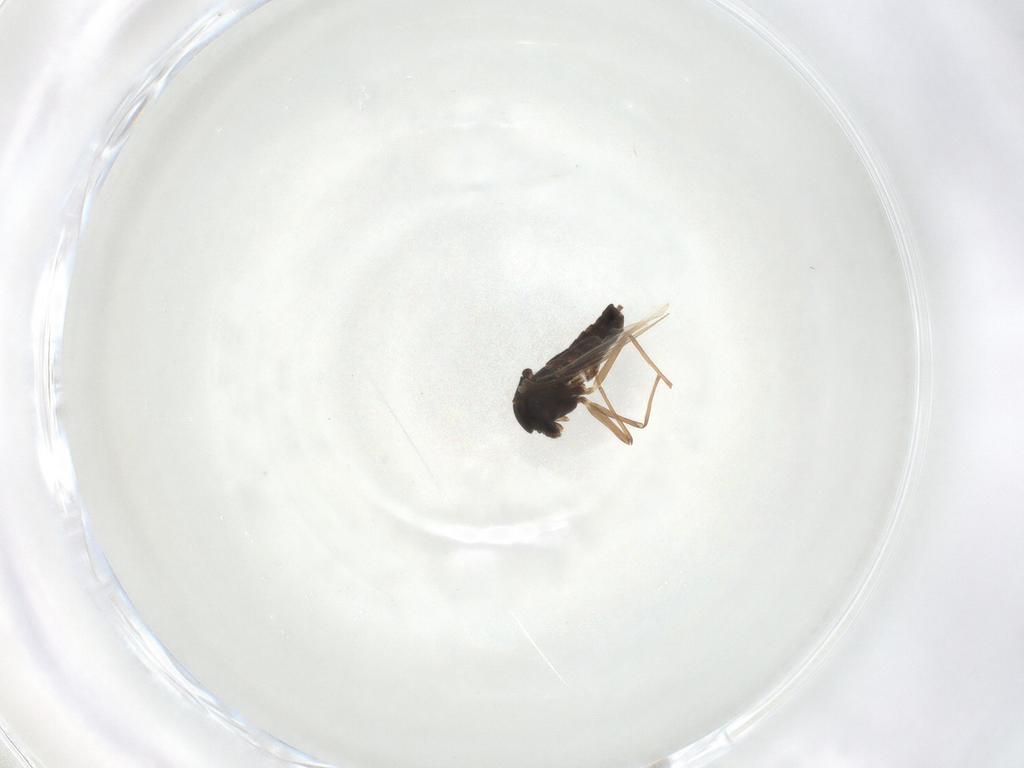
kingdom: Animalia
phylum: Arthropoda
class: Insecta
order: Diptera
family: Chironomidae
